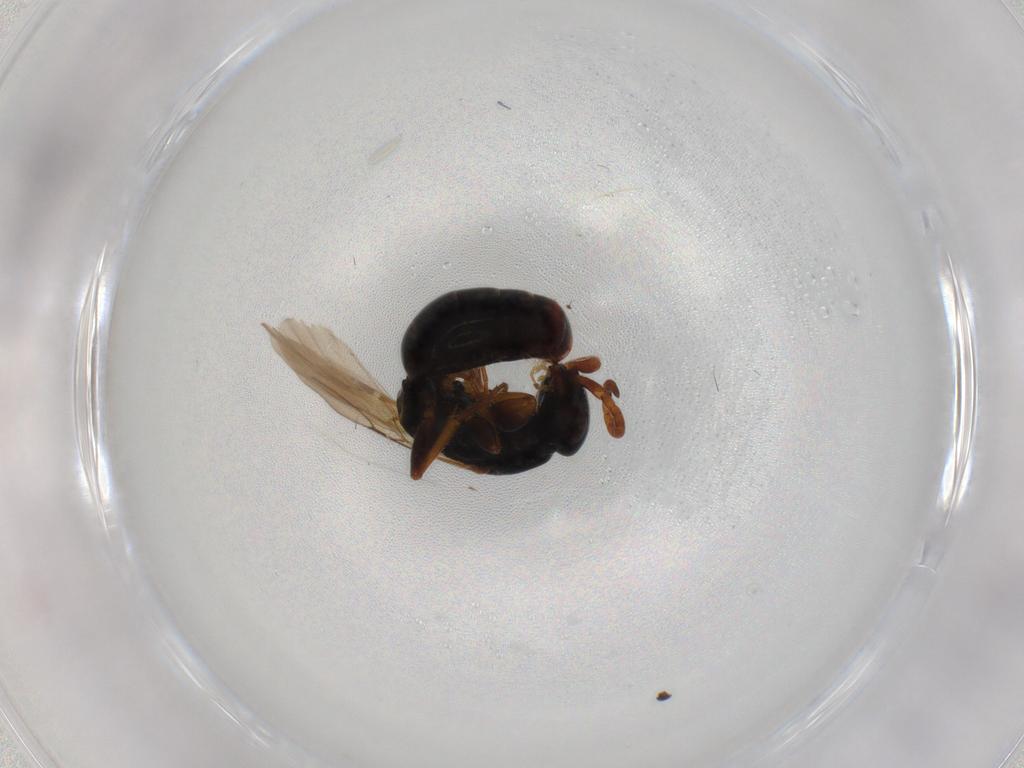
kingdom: Animalia
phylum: Arthropoda
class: Insecta
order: Hymenoptera
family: Bethylidae
